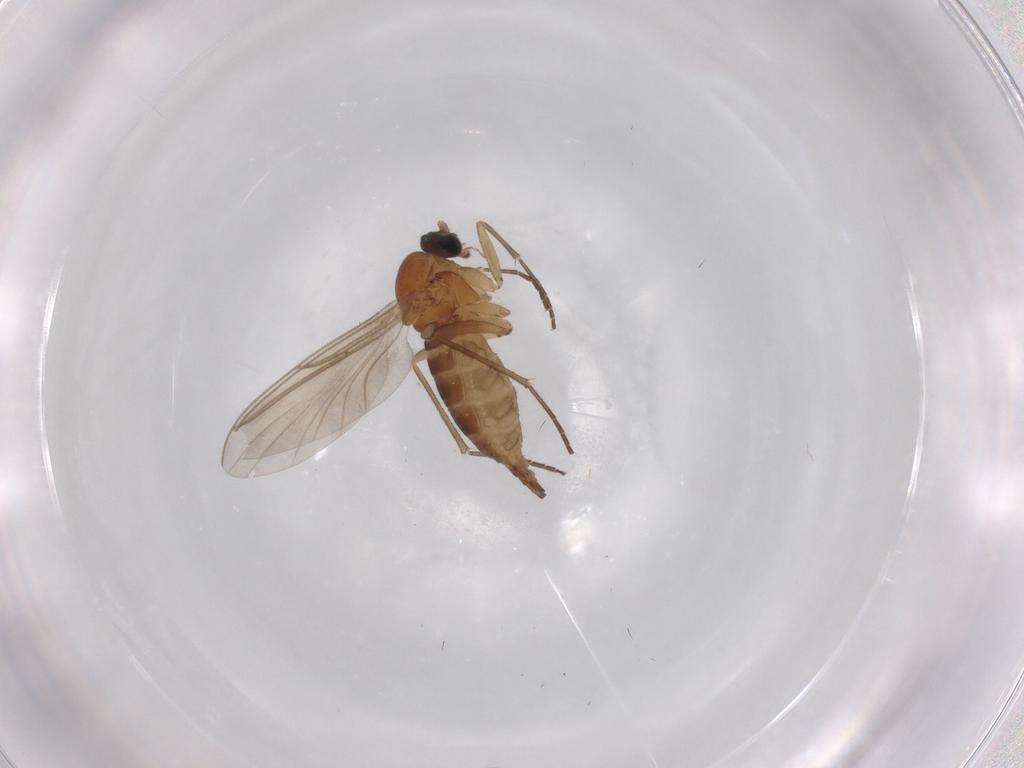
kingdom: Animalia
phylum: Arthropoda
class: Insecta
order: Diptera
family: Sciaridae
